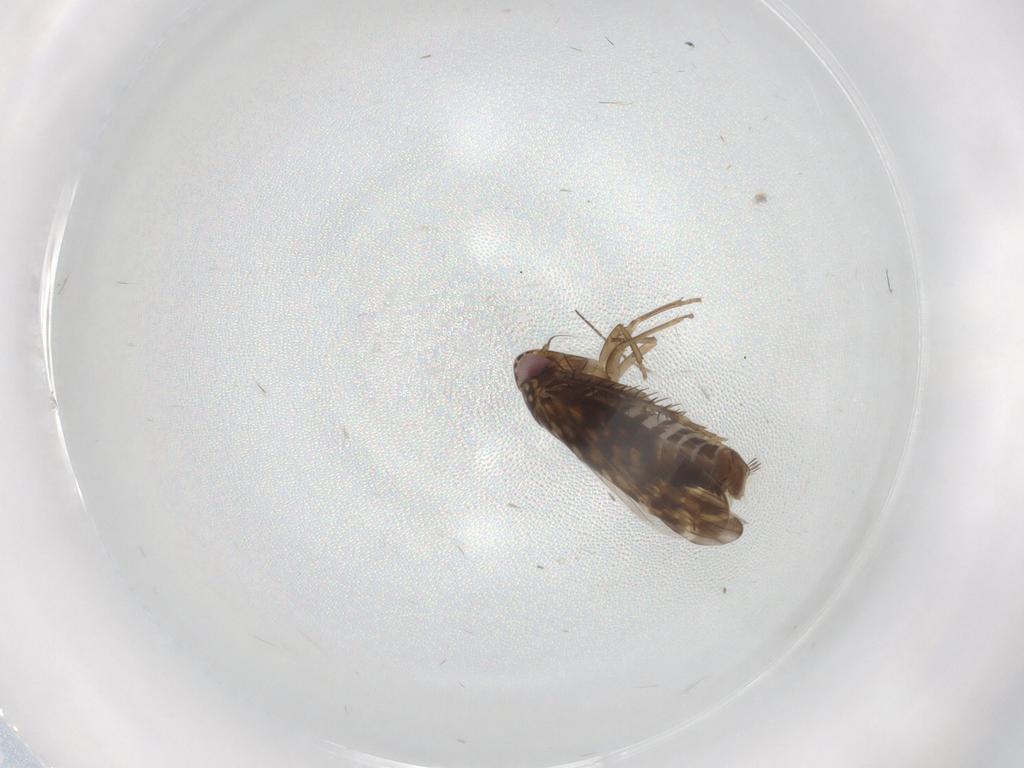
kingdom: Animalia
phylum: Arthropoda
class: Insecta
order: Hemiptera
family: Cicadellidae
